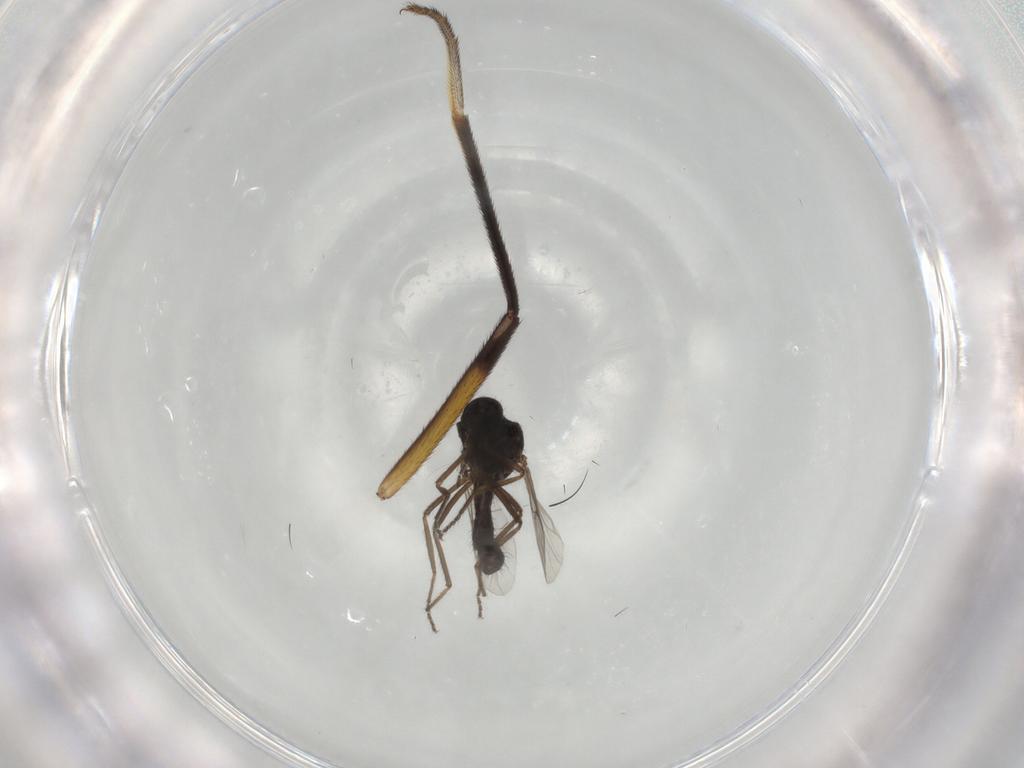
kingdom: Animalia
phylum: Arthropoda
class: Insecta
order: Diptera
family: Ceratopogonidae
